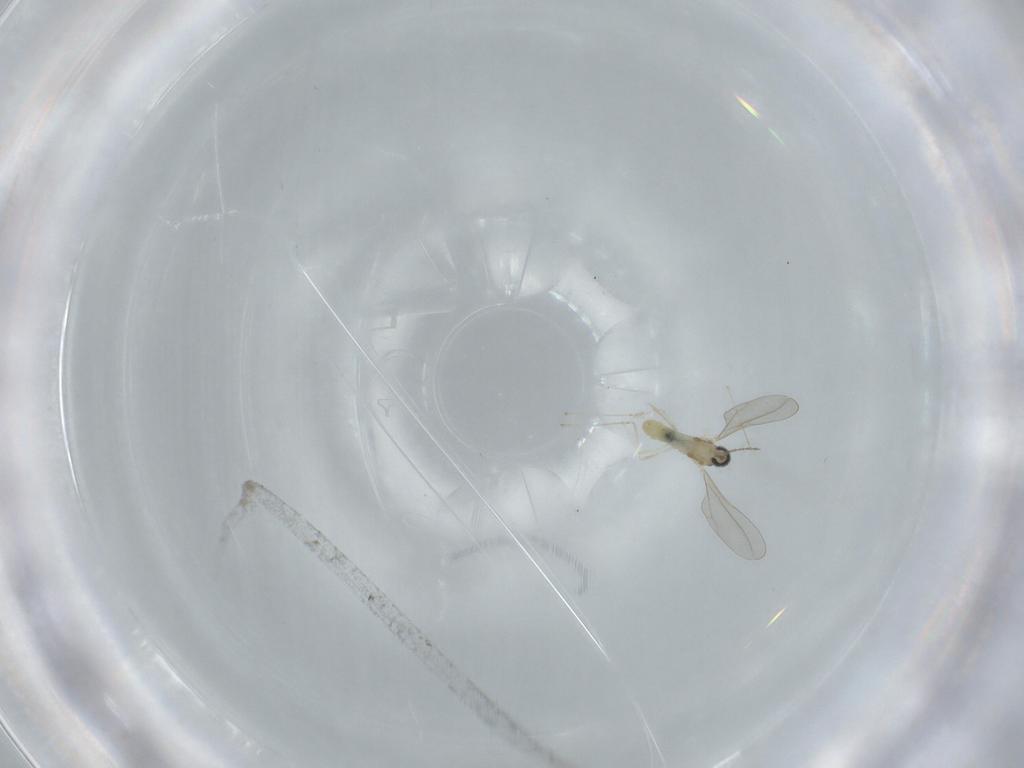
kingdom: Animalia
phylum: Arthropoda
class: Insecta
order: Diptera
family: Cecidomyiidae
